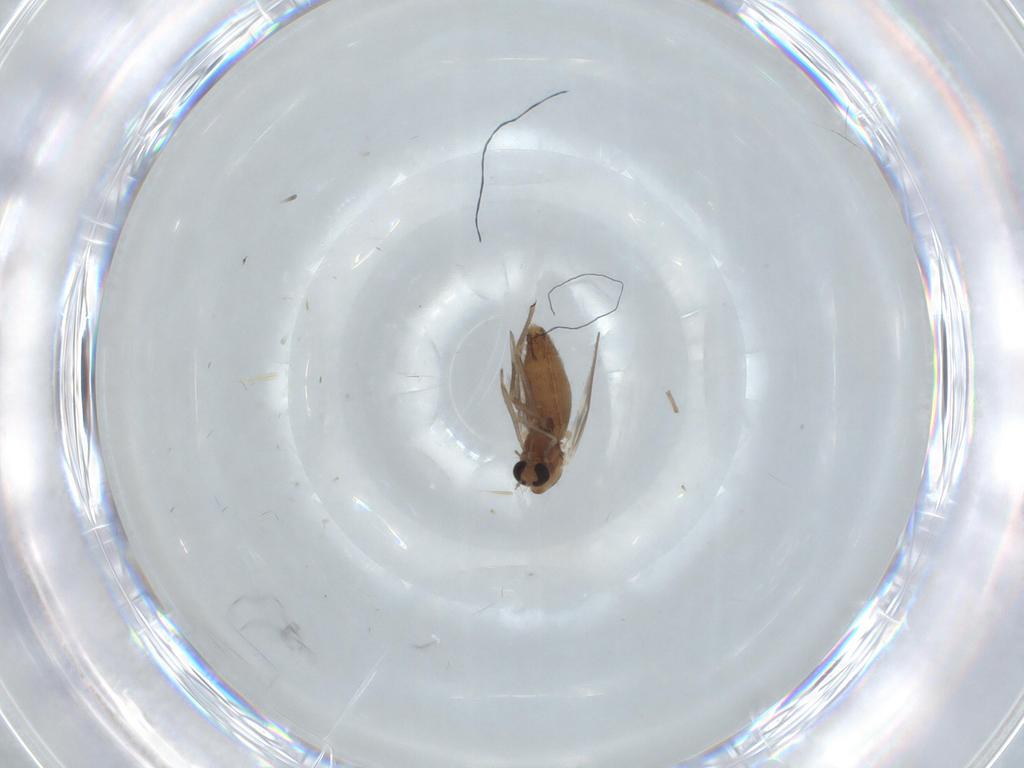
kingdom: Animalia
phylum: Arthropoda
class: Insecta
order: Diptera
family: Chironomidae
